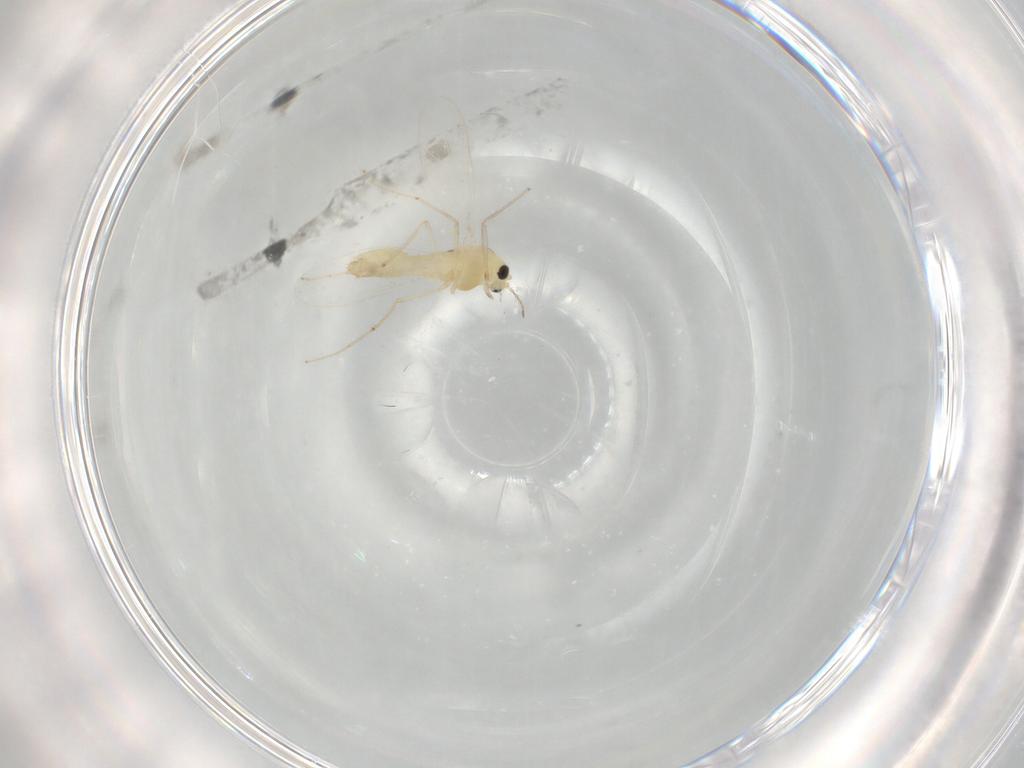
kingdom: Animalia
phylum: Arthropoda
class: Insecta
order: Diptera
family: Chironomidae
